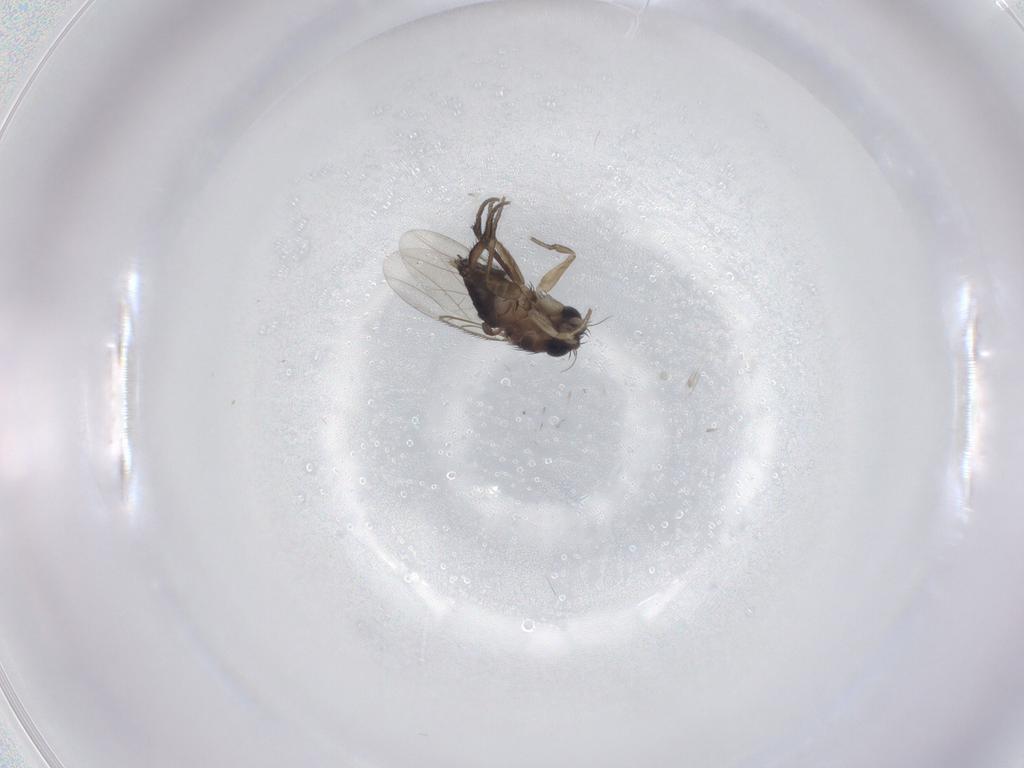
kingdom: Animalia
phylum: Arthropoda
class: Insecta
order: Diptera
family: Phoridae
